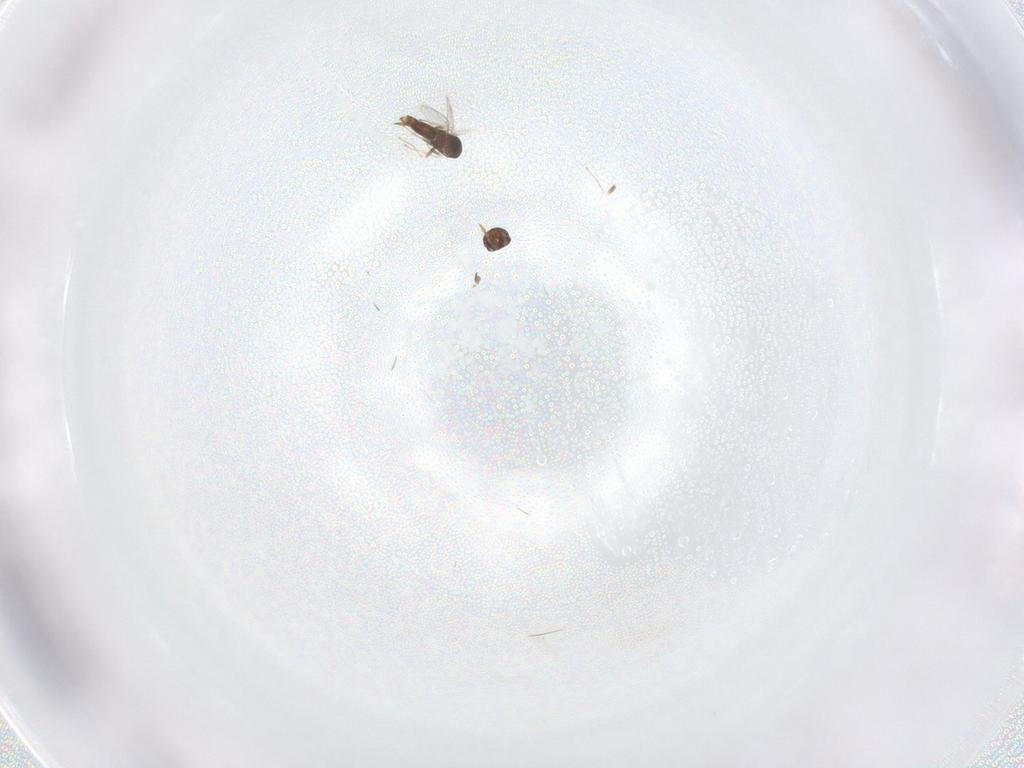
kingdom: Animalia
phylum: Arthropoda
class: Insecta
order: Hymenoptera
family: Eulophidae
